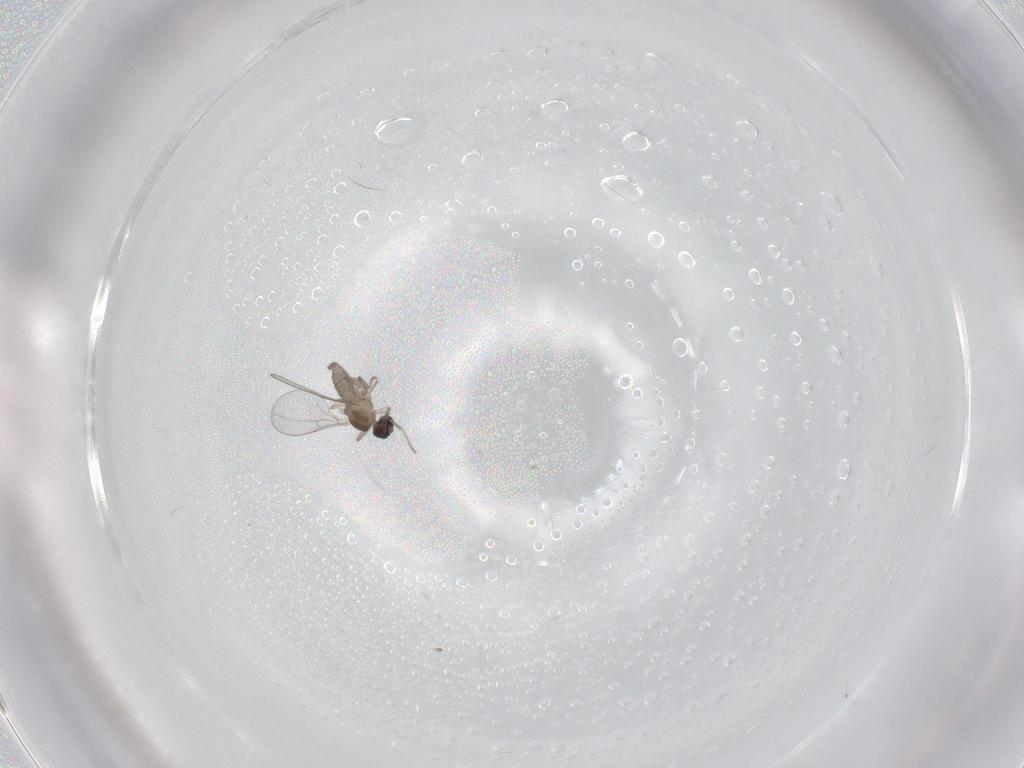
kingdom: Animalia
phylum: Arthropoda
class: Insecta
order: Diptera
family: Cecidomyiidae
